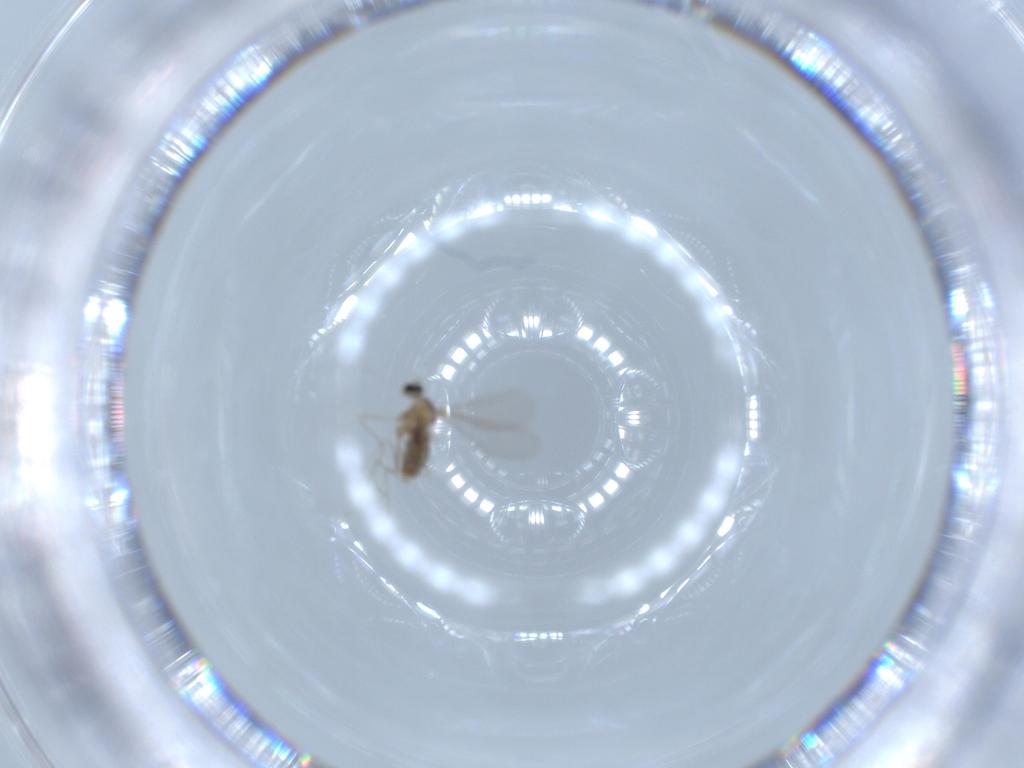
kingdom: Animalia
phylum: Arthropoda
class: Insecta
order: Diptera
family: Cecidomyiidae
